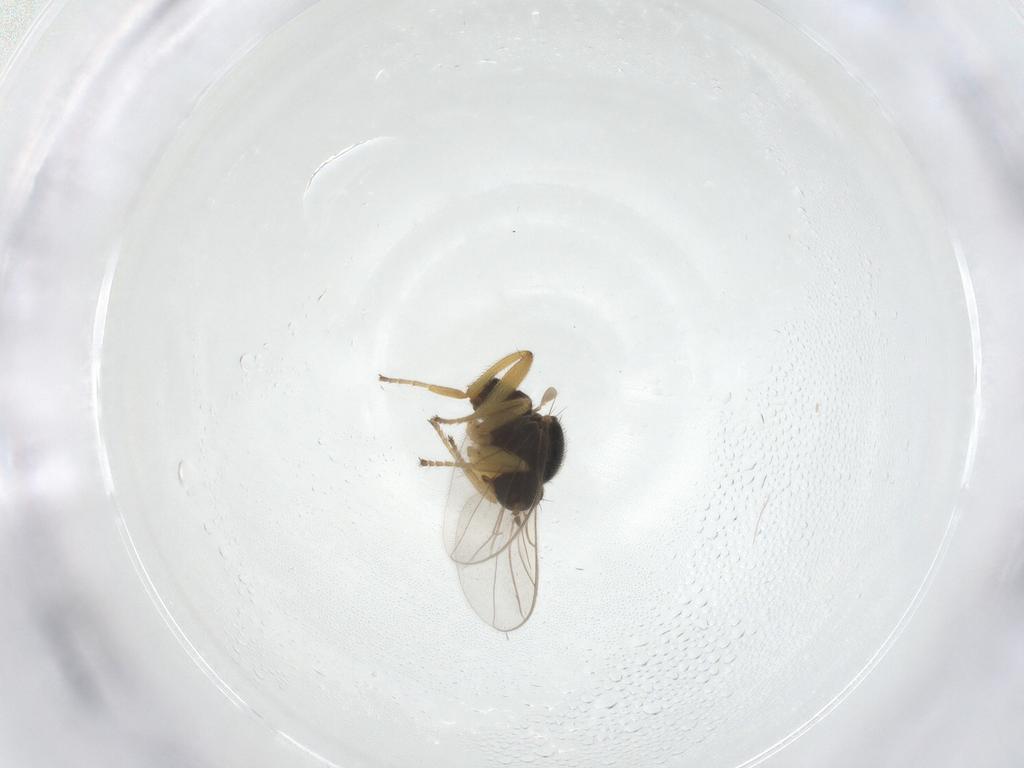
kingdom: Animalia
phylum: Arthropoda
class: Insecta
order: Diptera
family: Hybotidae
